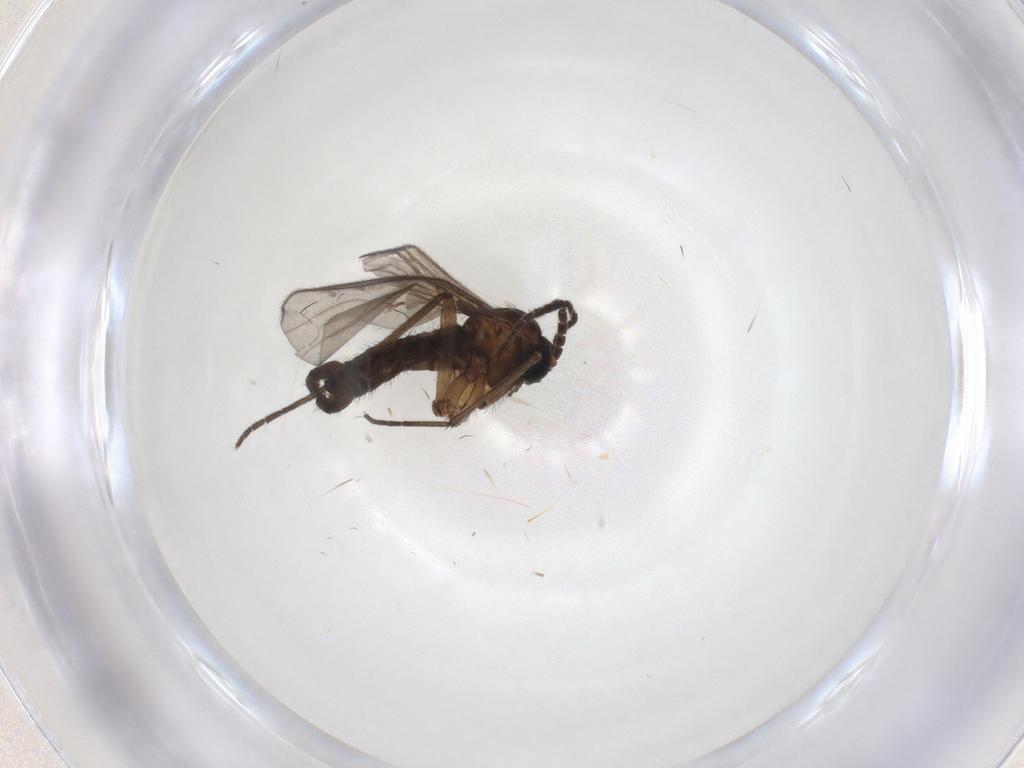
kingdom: Animalia
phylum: Arthropoda
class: Insecta
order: Diptera
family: Sciaridae
